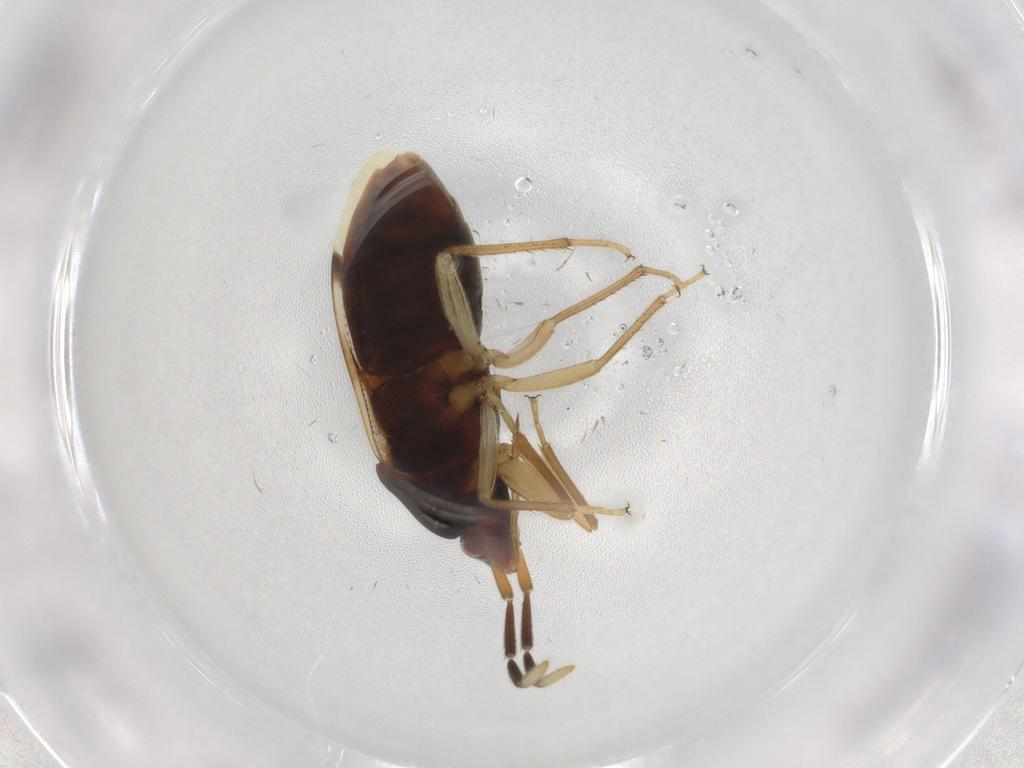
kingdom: Animalia
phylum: Arthropoda
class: Insecta
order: Hemiptera
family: Rhyparochromidae
